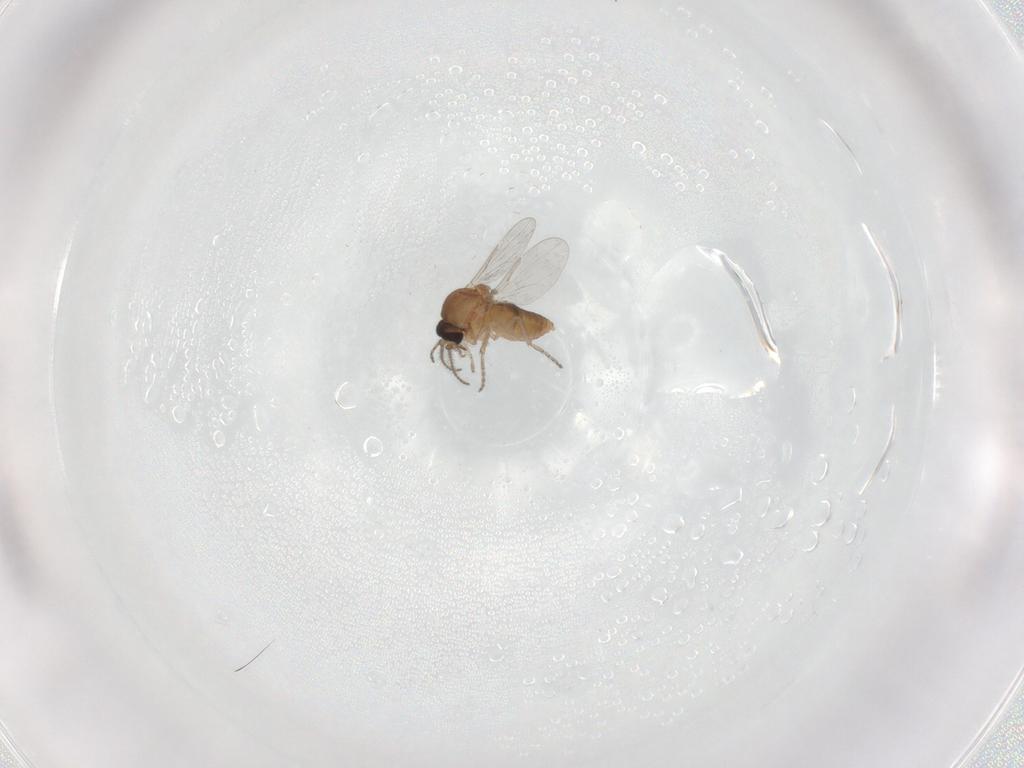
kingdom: Animalia
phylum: Arthropoda
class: Insecta
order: Diptera
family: Ceratopogonidae
